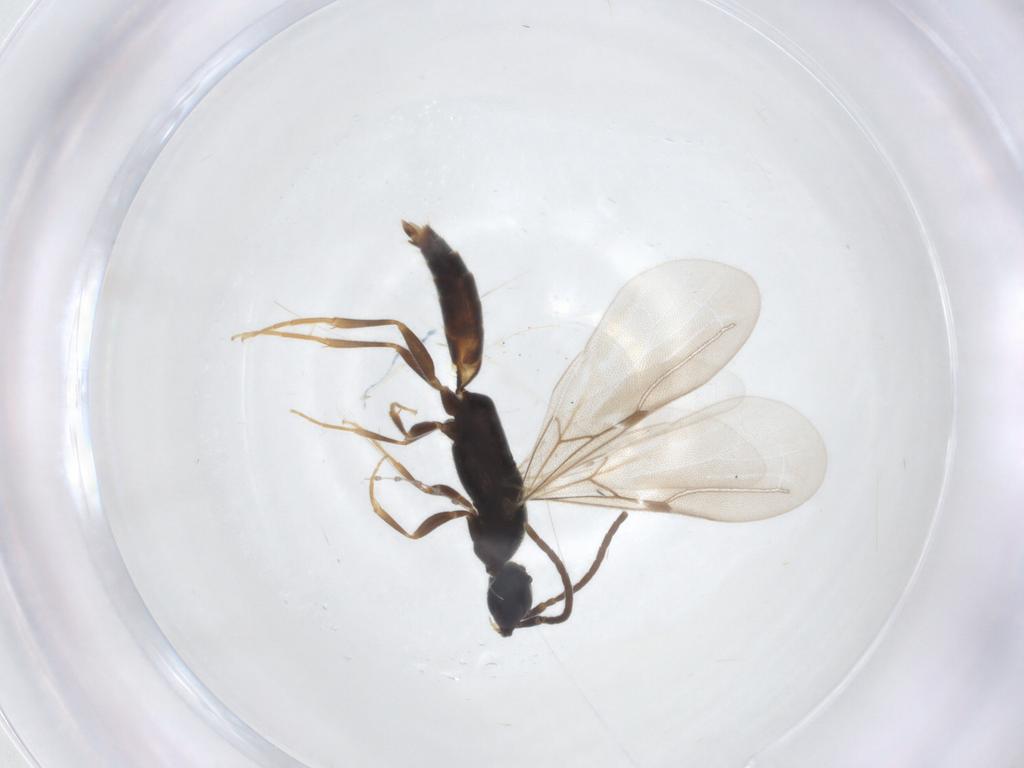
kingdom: Animalia
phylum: Arthropoda
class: Insecta
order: Hymenoptera
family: Bethylidae
